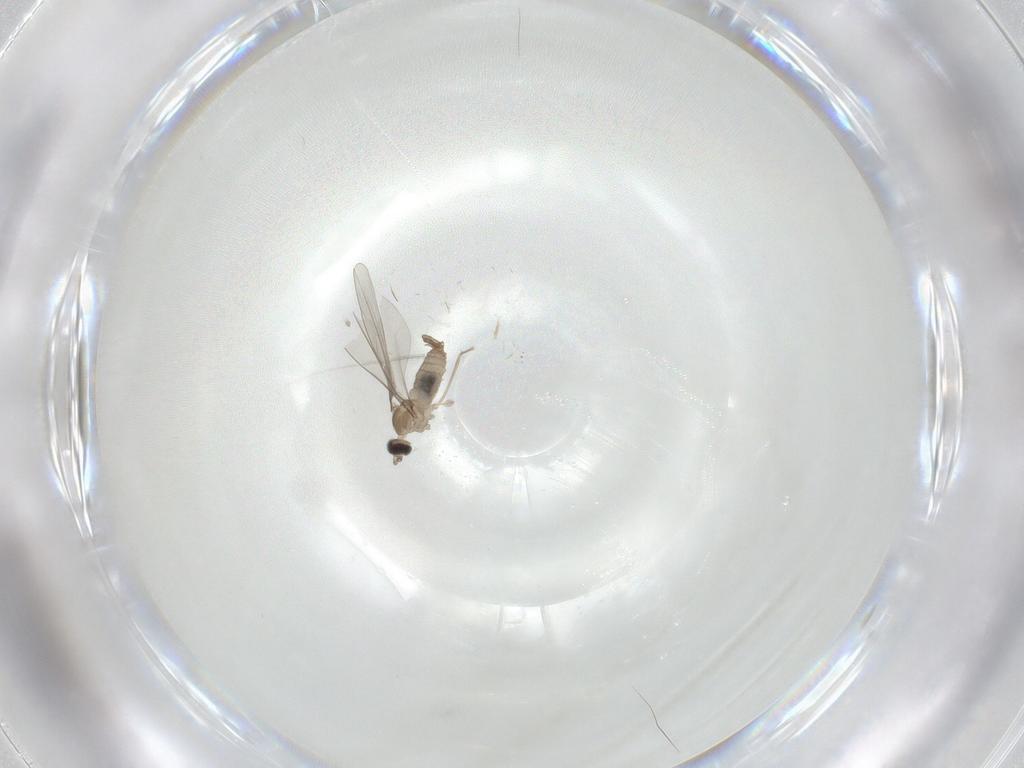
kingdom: Animalia
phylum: Arthropoda
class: Insecta
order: Diptera
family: Cecidomyiidae
